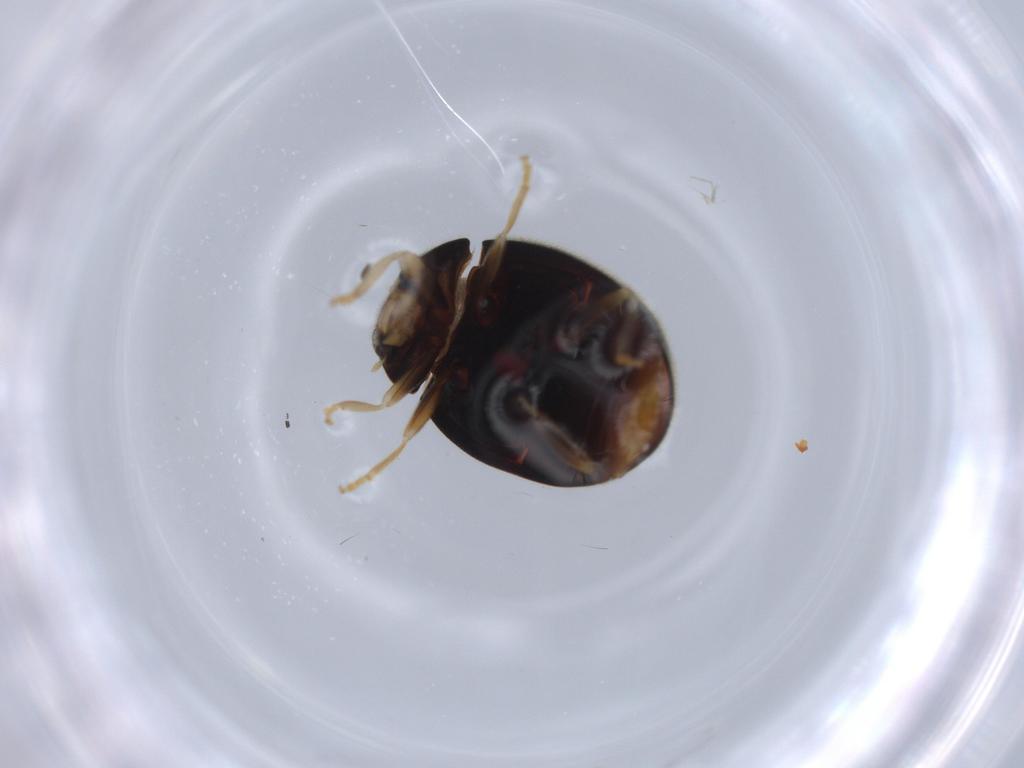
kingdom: Animalia
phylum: Arthropoda
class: Insecta
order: Coleoptera
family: Coccinellidae
